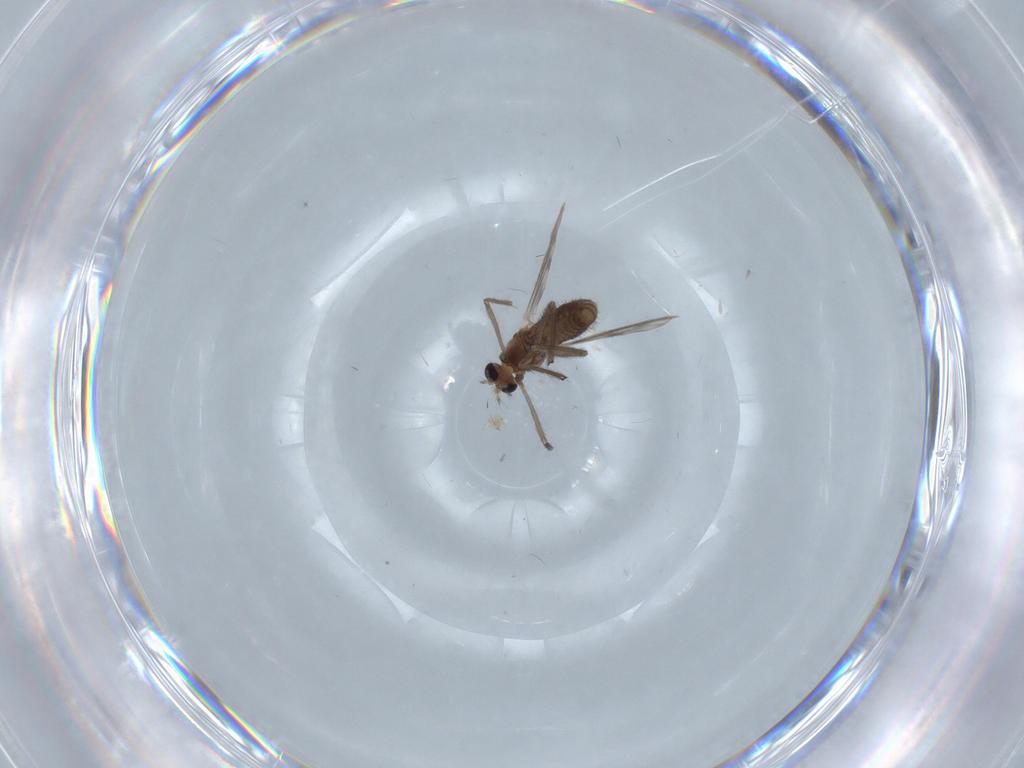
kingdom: Animalia
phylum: Arthropoda
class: Insecta
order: Diptera
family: Chironomidae
